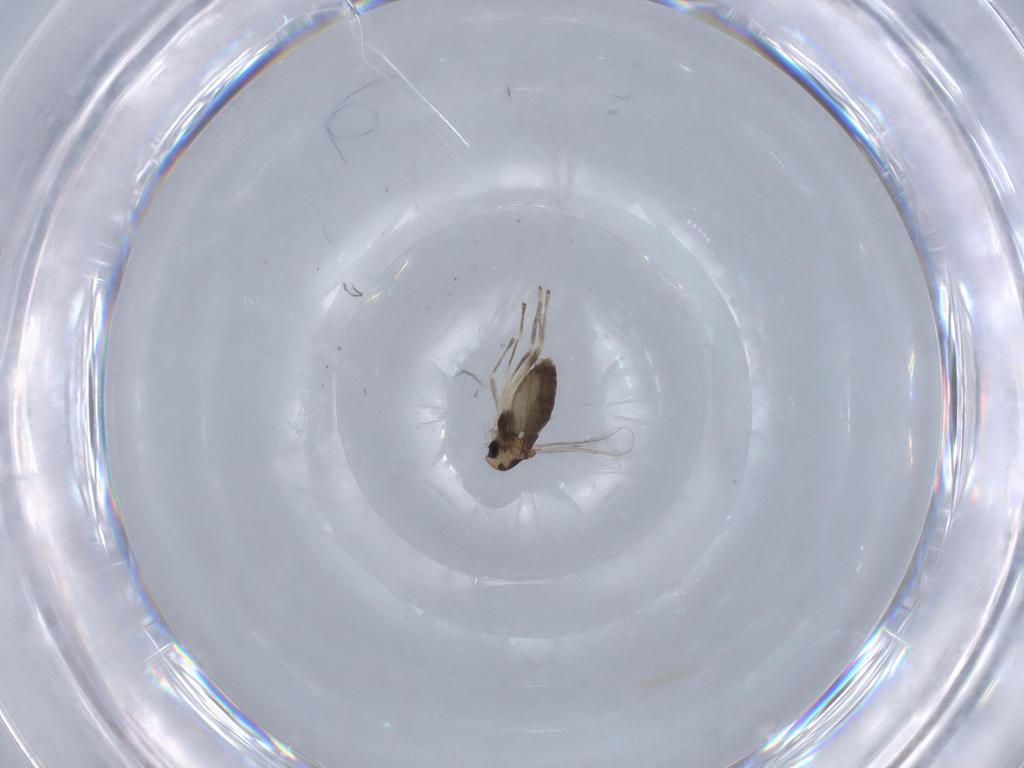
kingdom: Animalia
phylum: Arthropoda
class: Insecta
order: Diptera
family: Chironomidae
